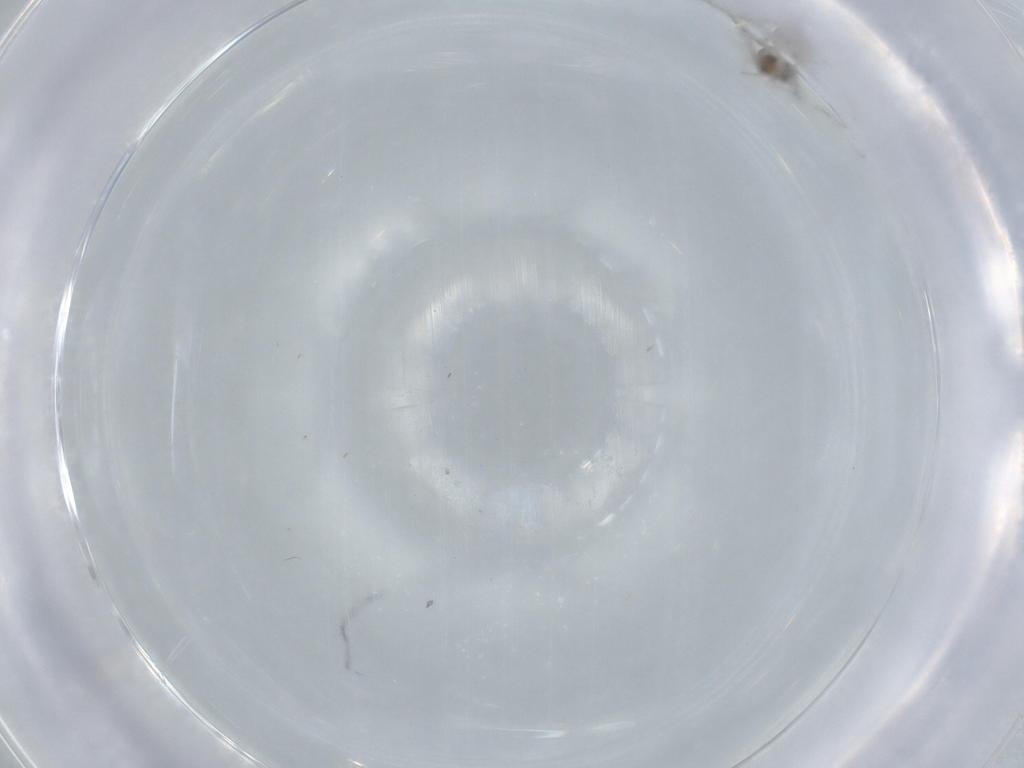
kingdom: Animalia
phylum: Arthropoda
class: Insecta
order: Diptera
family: Cecidomyiidae
